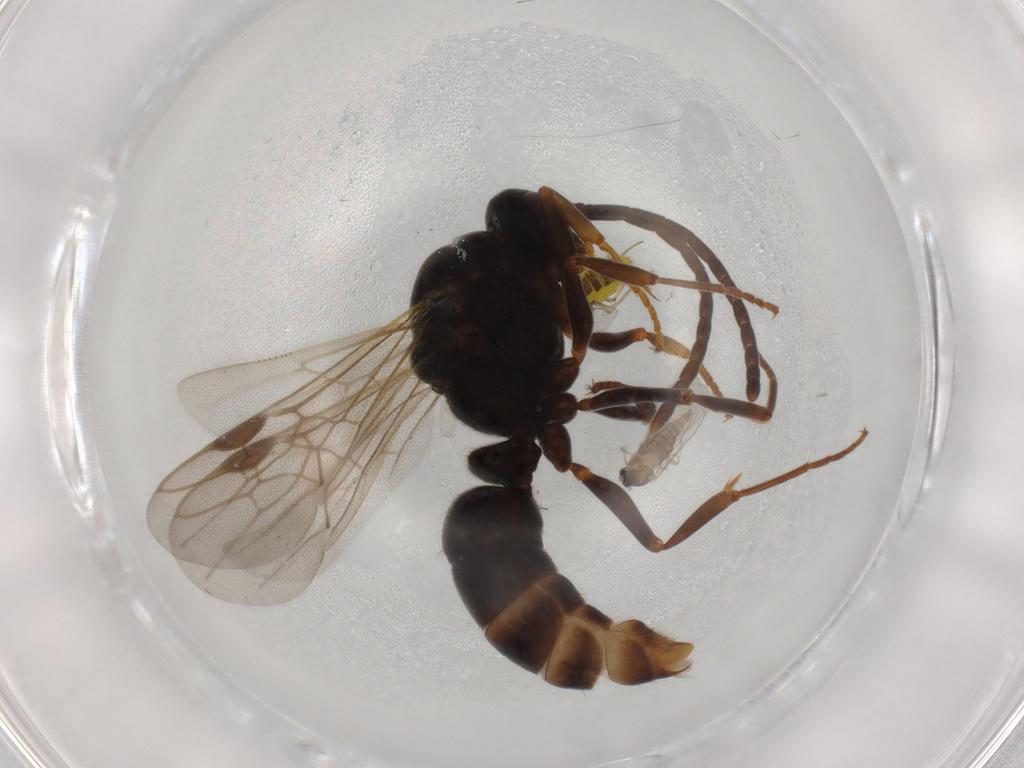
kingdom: Animalia
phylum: Arthropoda
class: Insecta
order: Hymenoptera
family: Formicidae
